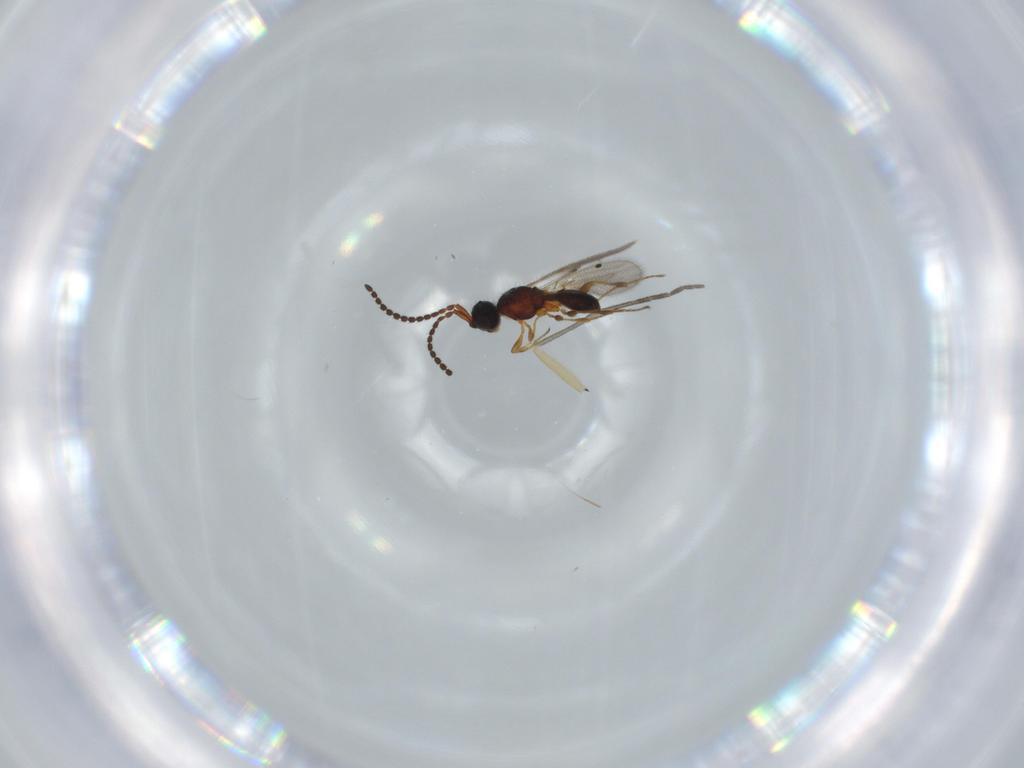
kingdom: Animalia
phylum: Arthropoda
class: Insecta
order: Hymenoptera
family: Diapriidae
